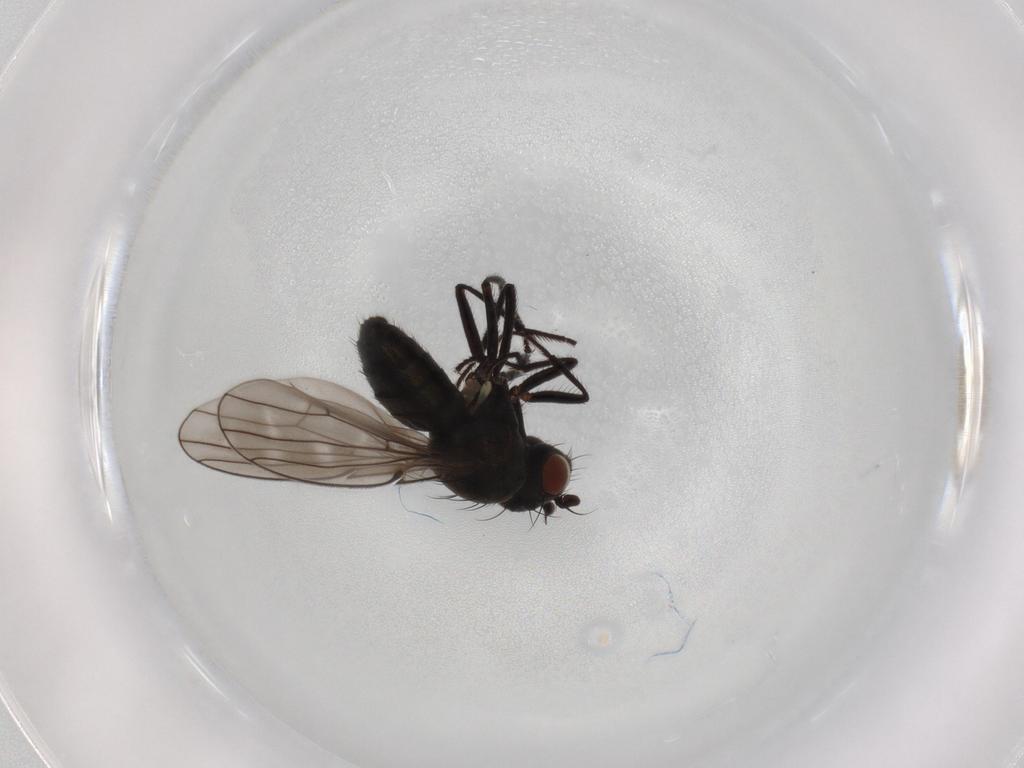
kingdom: Animalia
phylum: Arthropoda
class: Insecta
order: Diptera
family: Ephydridae
